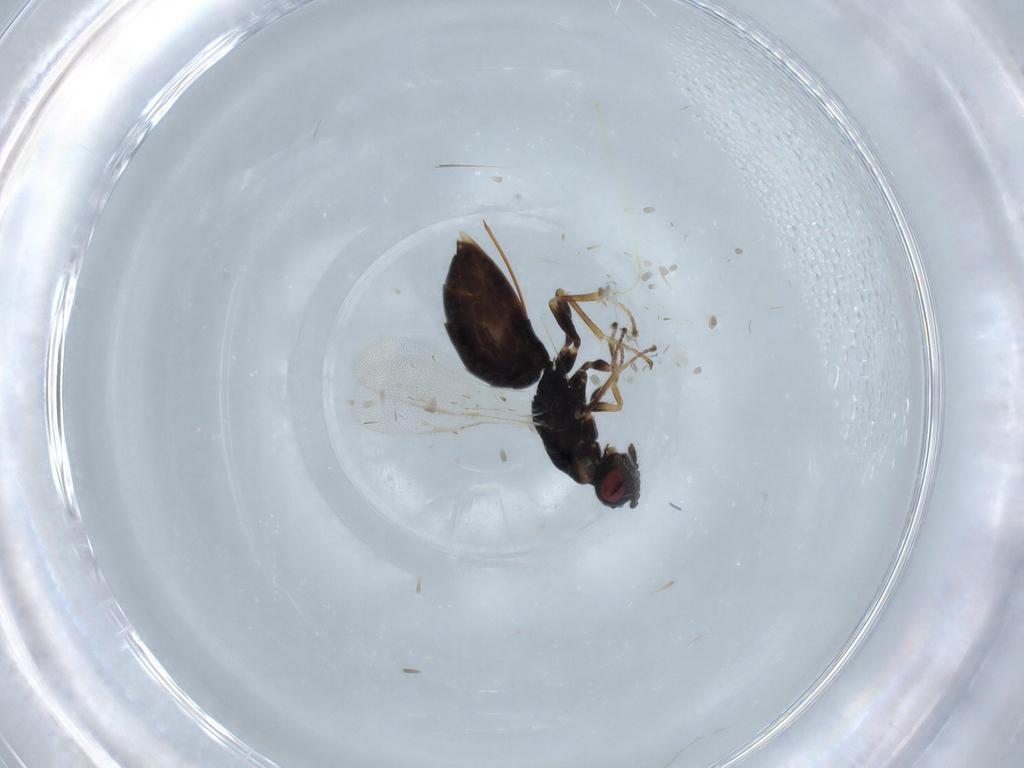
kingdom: Animalia
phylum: Arthropoda
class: Insecta
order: Hymenoptera
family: Eurytomidae
